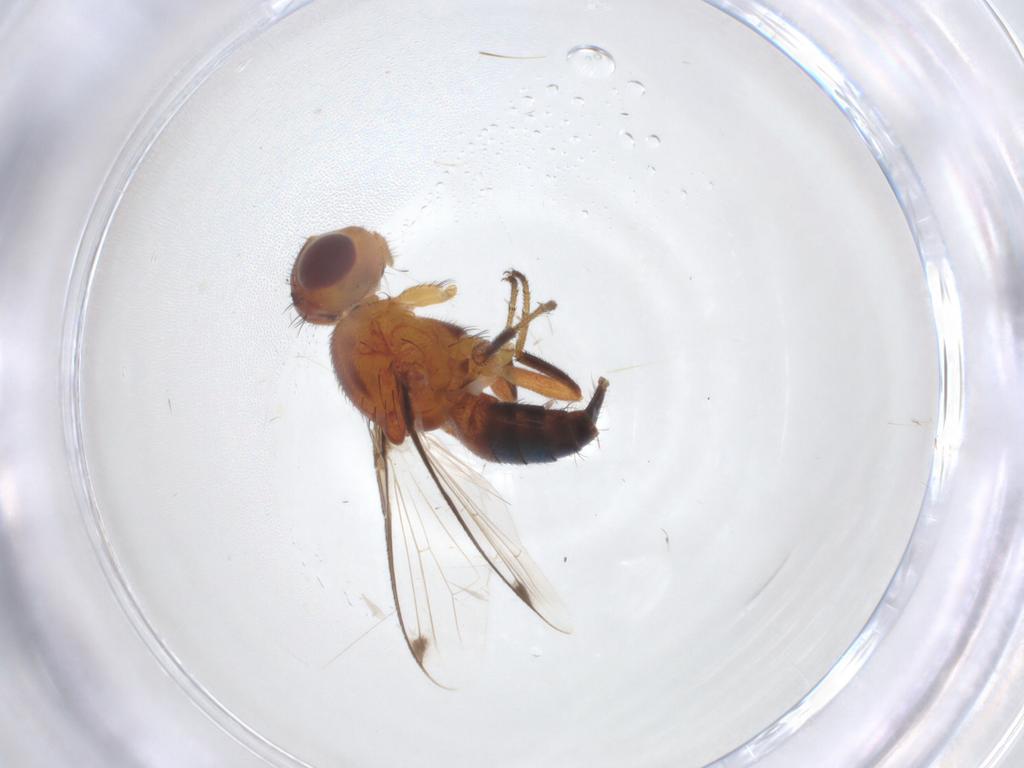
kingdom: Animalia
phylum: Arthropoda
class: Insecta
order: Diptera
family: Richardiidae
